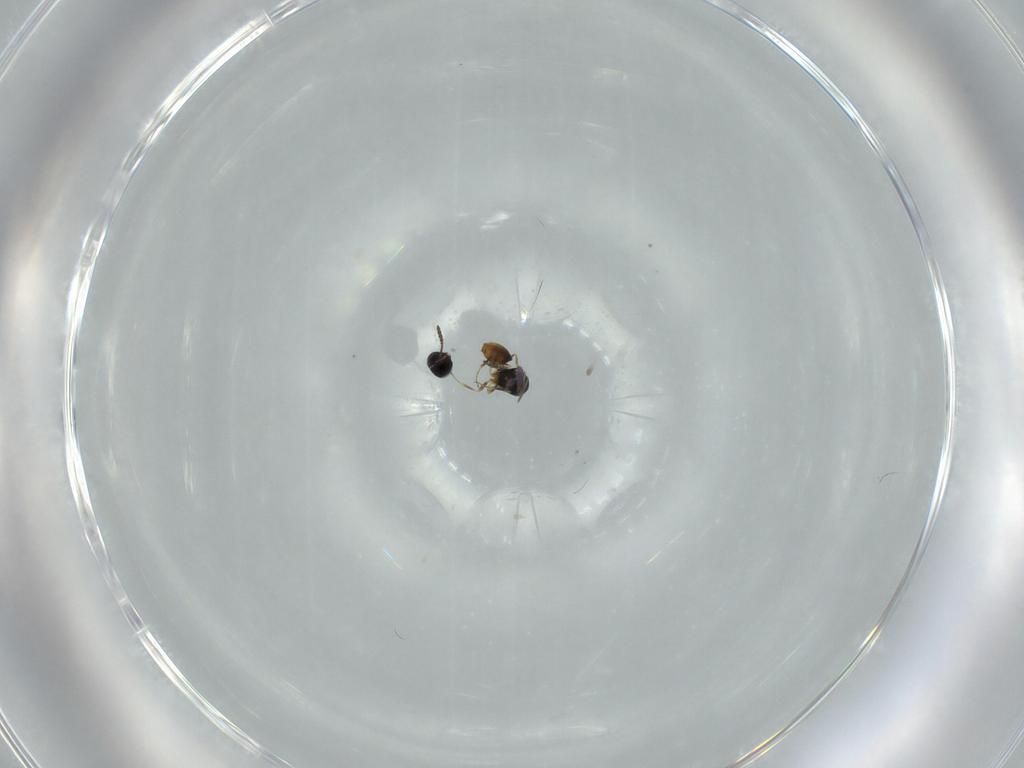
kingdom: Animalia
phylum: Arthropoda
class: Insecta
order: Hymenoptera
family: Scelionidae
